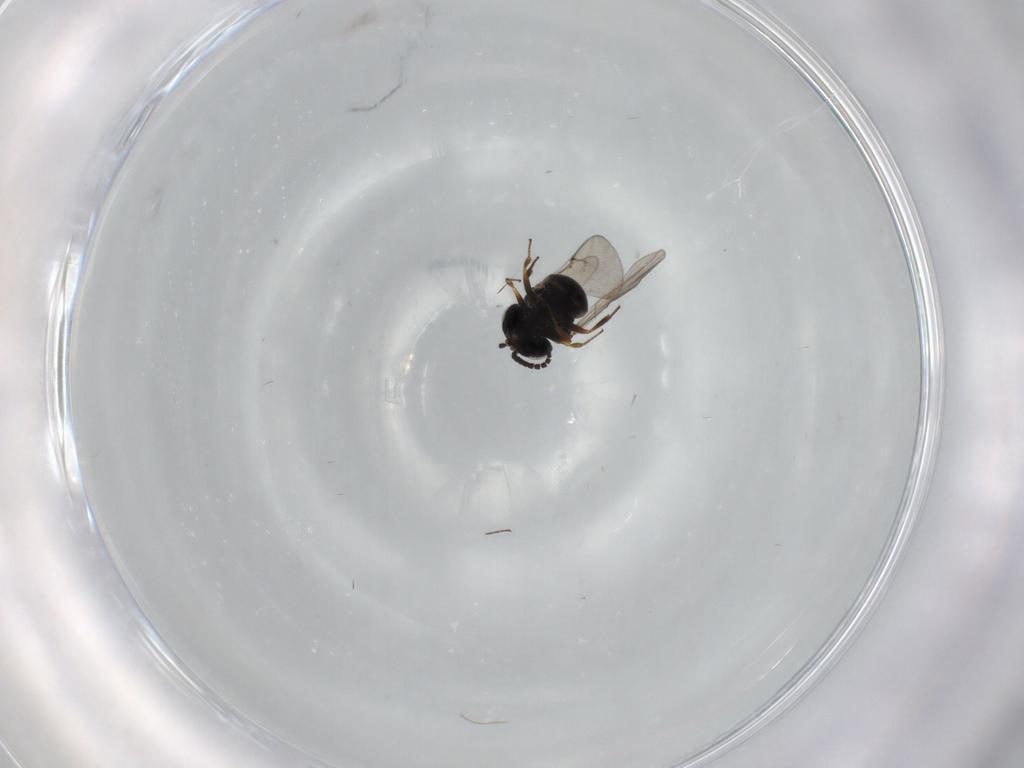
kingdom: Animalia
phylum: Arthropoda
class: Insecta
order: Hymenoptera
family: Scelionidae
